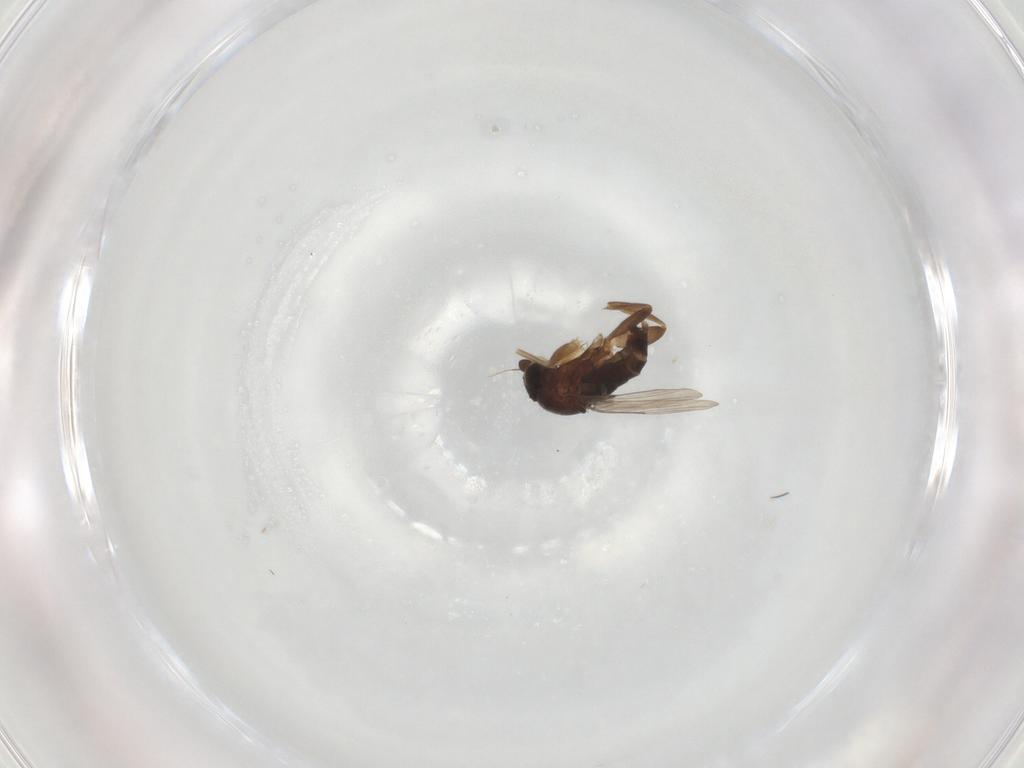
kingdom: Animalia
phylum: Arthropoda
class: Insecta
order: Diptera
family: Phoridae
